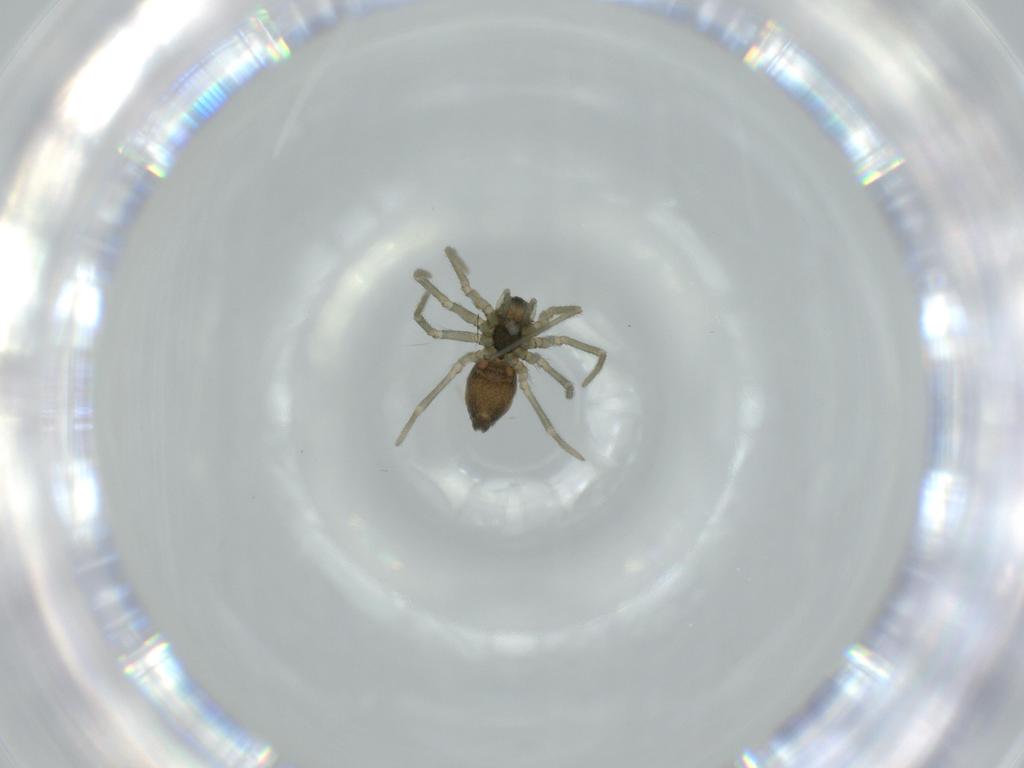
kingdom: Animalia
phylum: Arthropoda
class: Arachnida
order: Araneae
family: Linyphiidae
